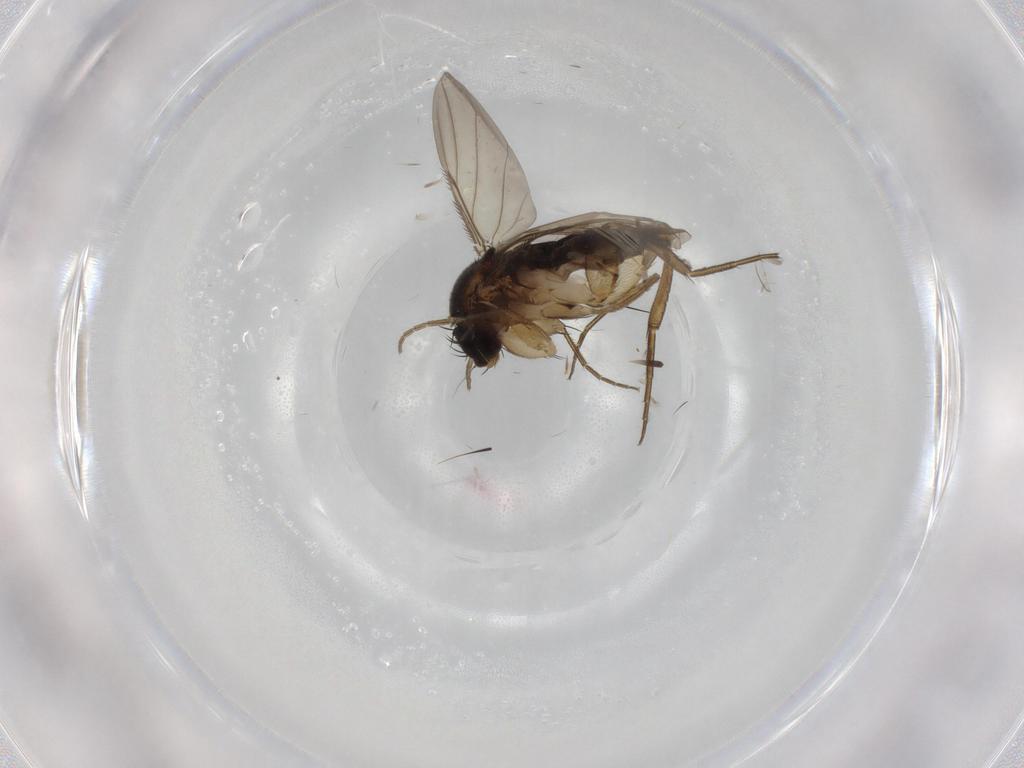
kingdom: Animalia
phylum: Arthropoda
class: Insecta
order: Diptera
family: Phoridae
